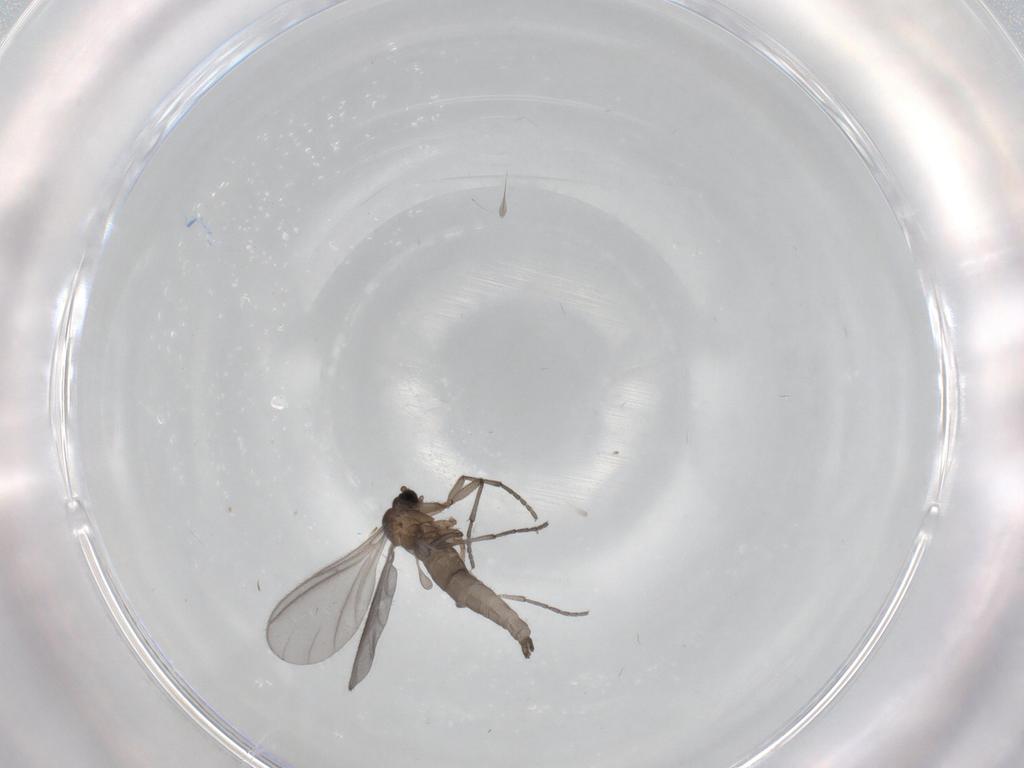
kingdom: Animalia
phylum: Arthropoda
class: Insecta
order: Diptera
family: Sciaridae
